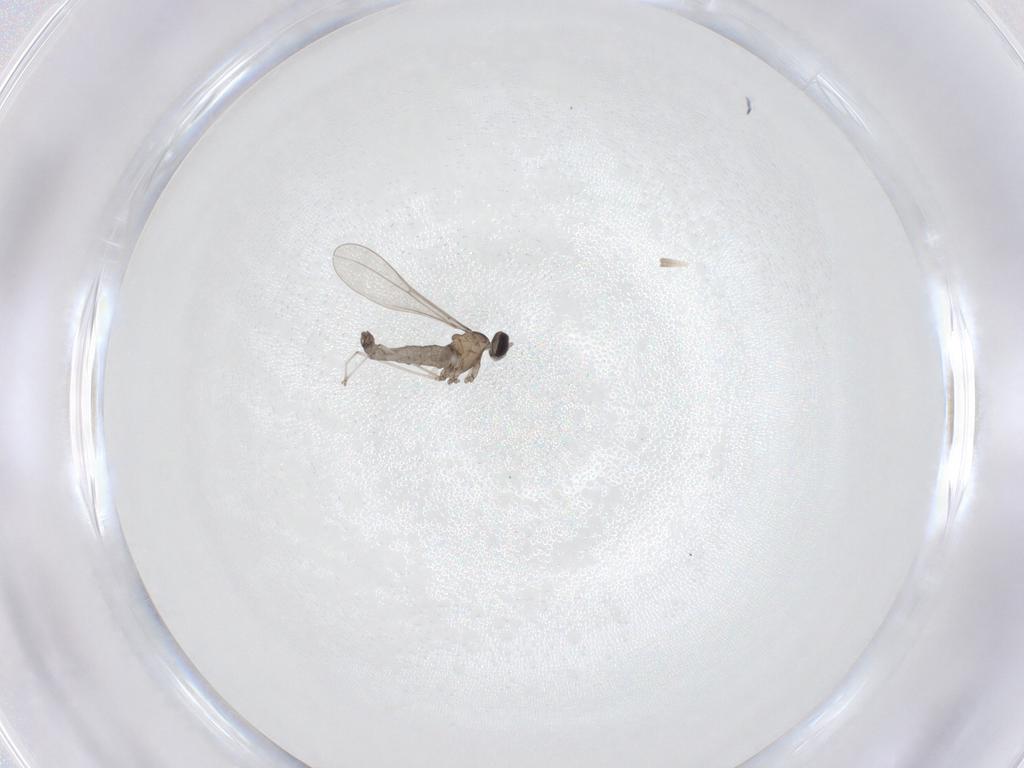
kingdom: Animalia
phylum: Arthropoda
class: Insecta
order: Diptera
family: Cecidomyiidae
